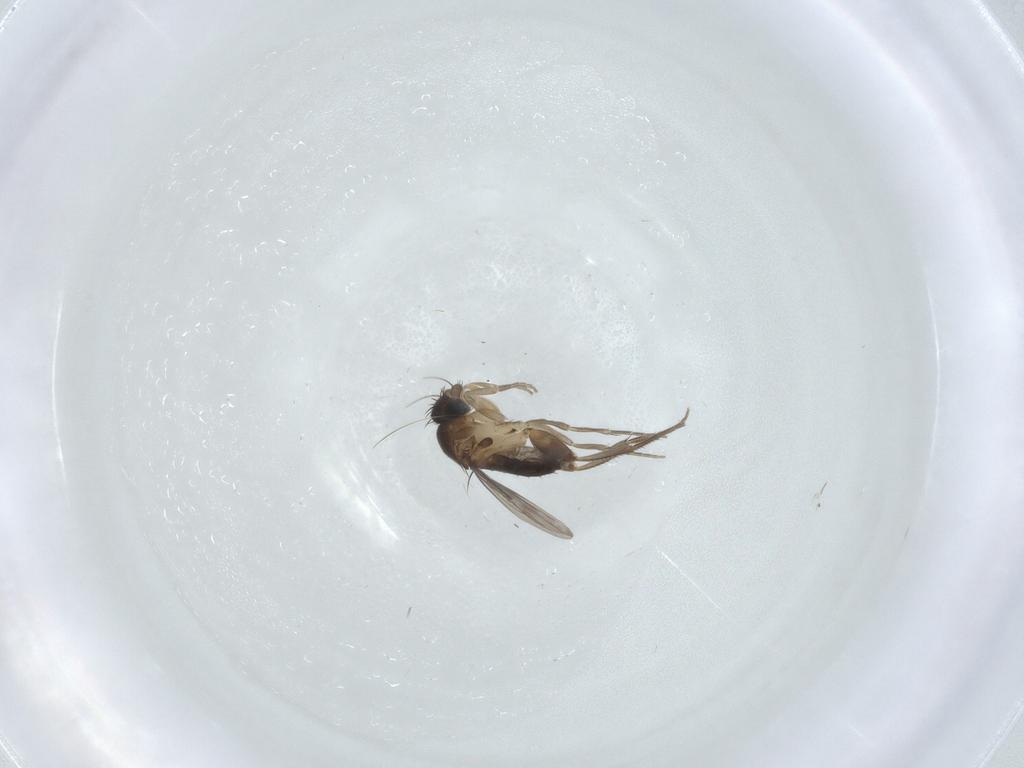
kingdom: Animalia
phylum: Arthropoda
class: Insecta
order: Diptera
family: Phoridae
